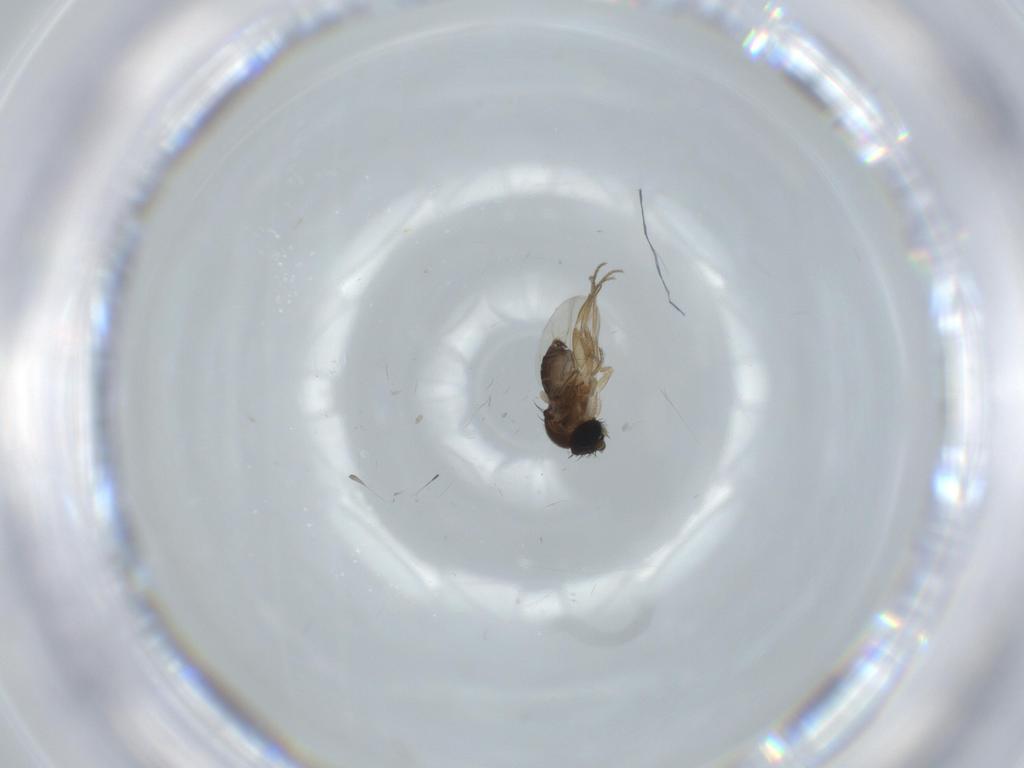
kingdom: Animalia
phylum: Arthropoda
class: Insecta
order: Diptera
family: Phoridae
